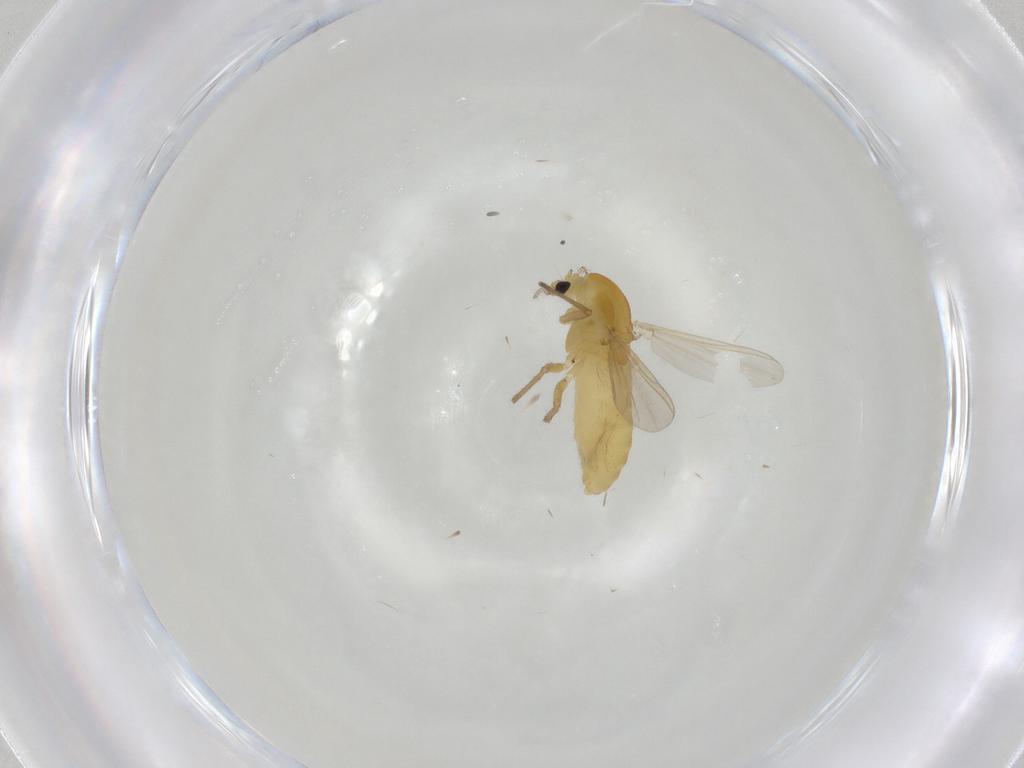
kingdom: Animalia
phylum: Arthropoda
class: Insecta
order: Diptera
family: Chironomidae
